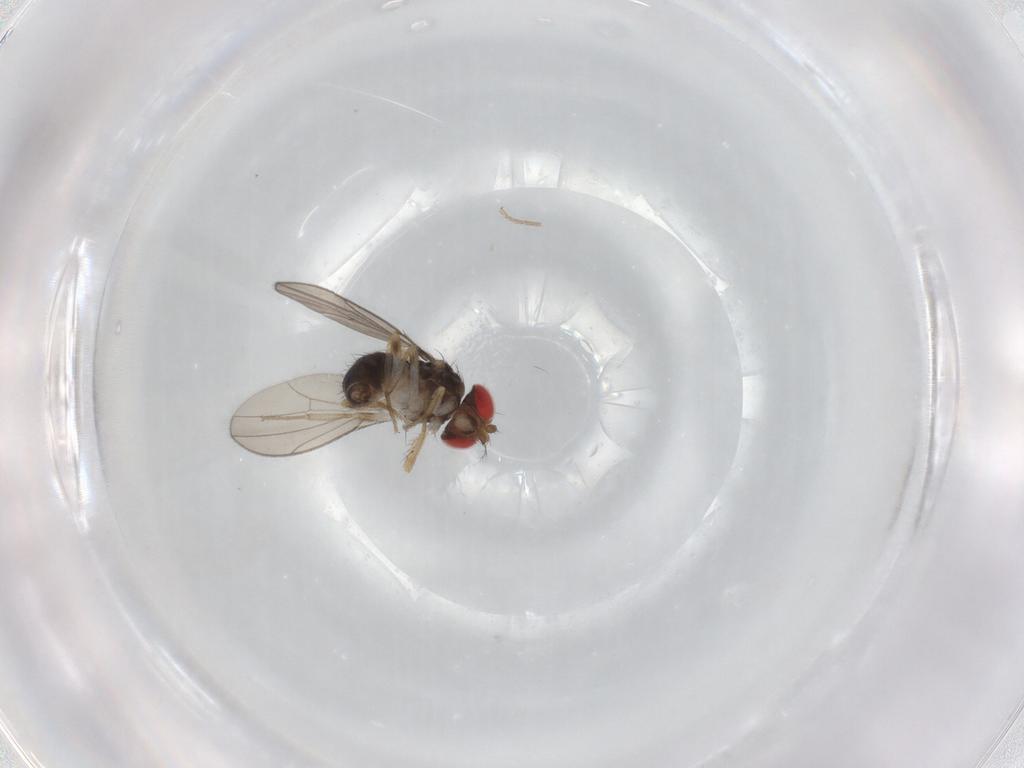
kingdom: Animalia
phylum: Arthropoda
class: Insecta
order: Diptera
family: Drosophilidae
